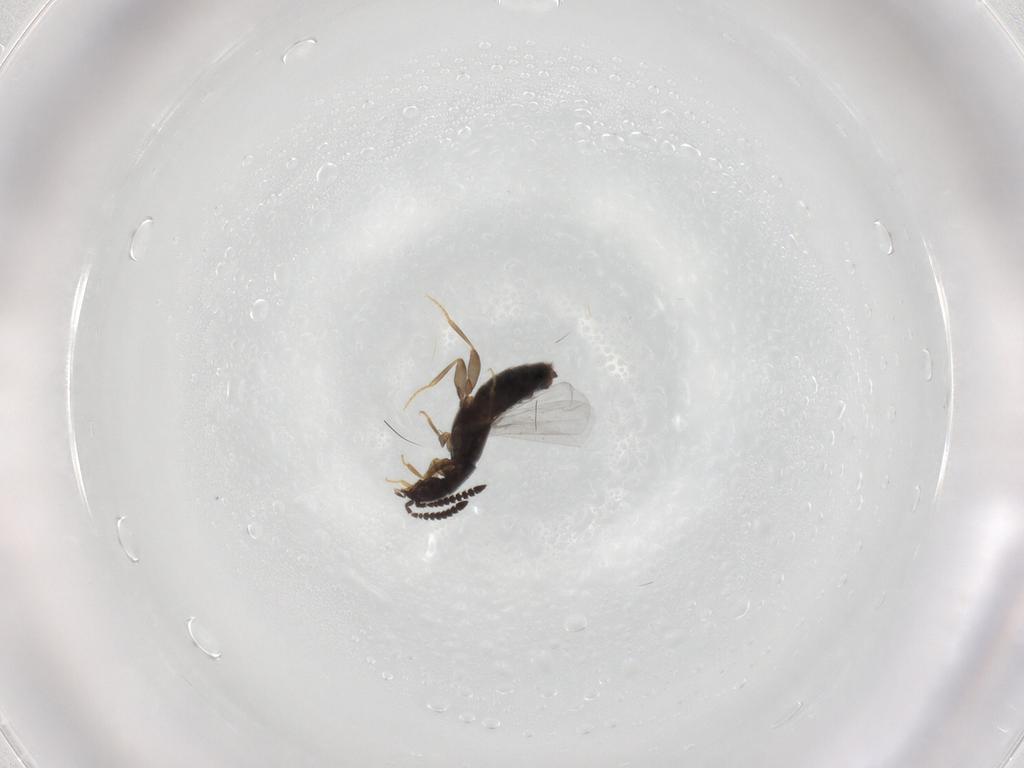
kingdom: Animalia
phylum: Arthropoda
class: Insecta
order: Coleoptera
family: Staphylinidae
